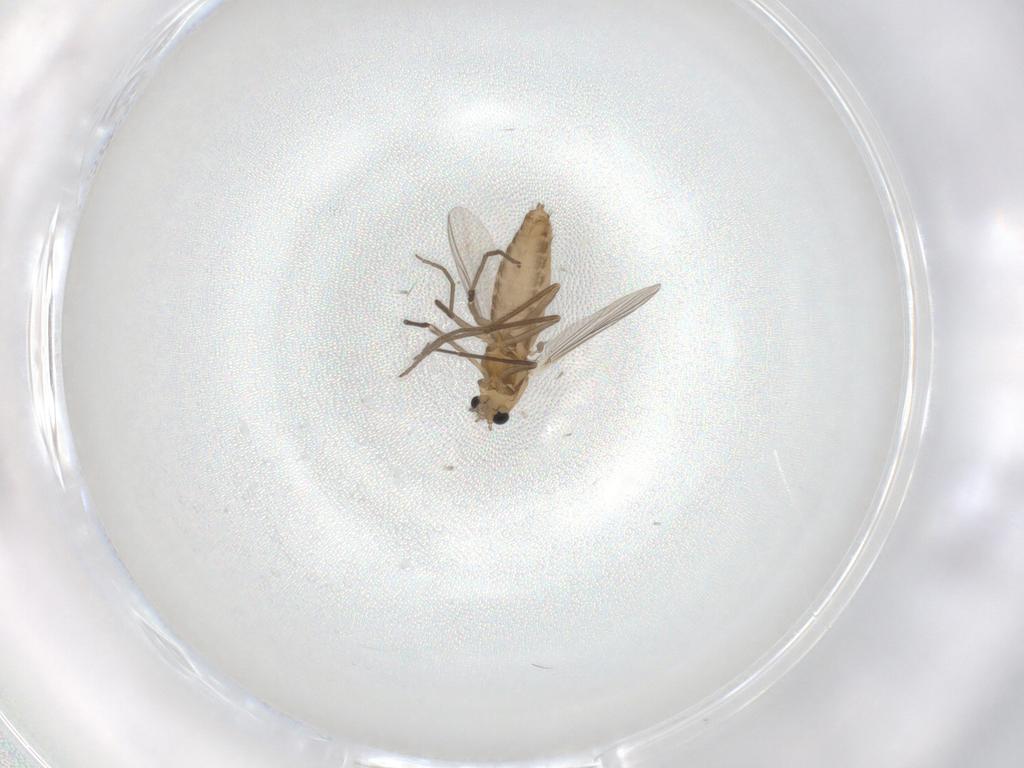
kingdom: Animalia
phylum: Arthropoda
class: Insecta
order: Diptera
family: Chironomidae
